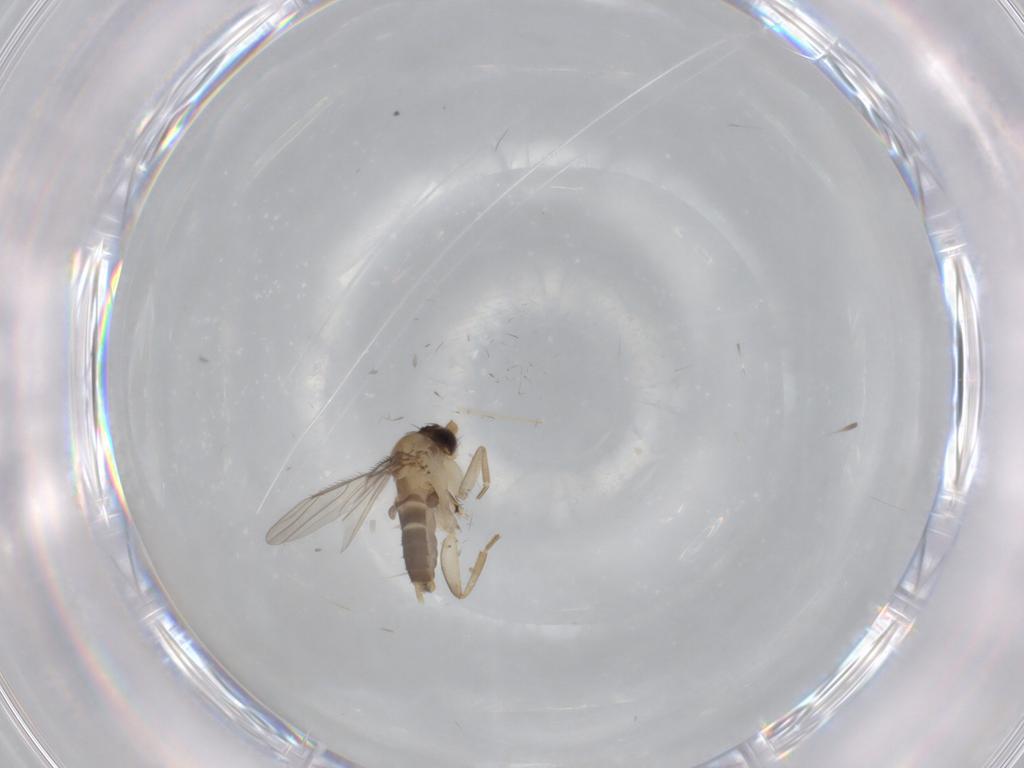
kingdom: Animalia
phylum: Arthropoda
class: Insecta
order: Diptera
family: Phoridae
